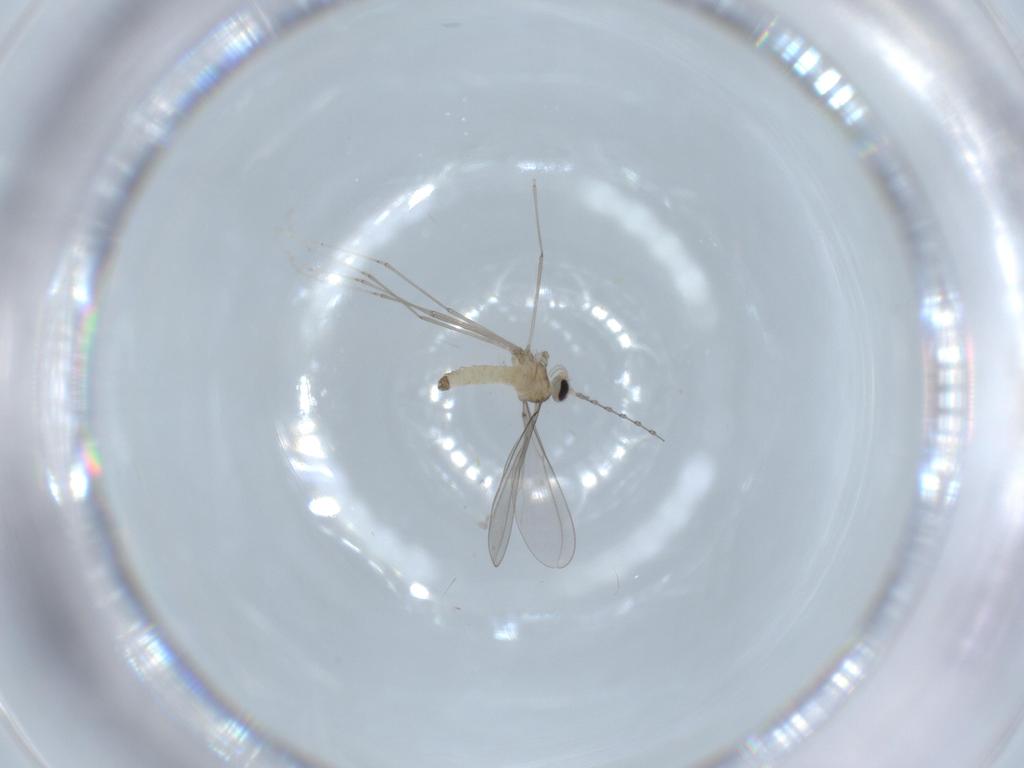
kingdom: Animalia
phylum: Arthropoda
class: Insecta
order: Diptera
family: Cecidomyiidae
